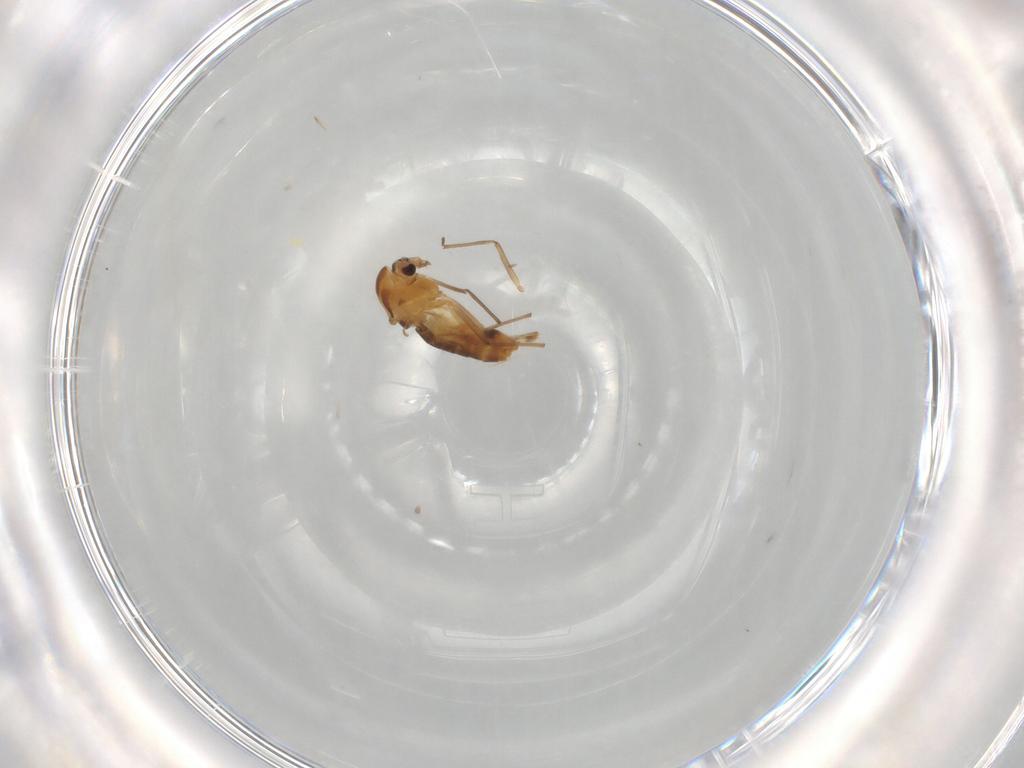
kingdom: Animalia
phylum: Arthropoda
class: Insecta
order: Diptera
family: Chironomidae
